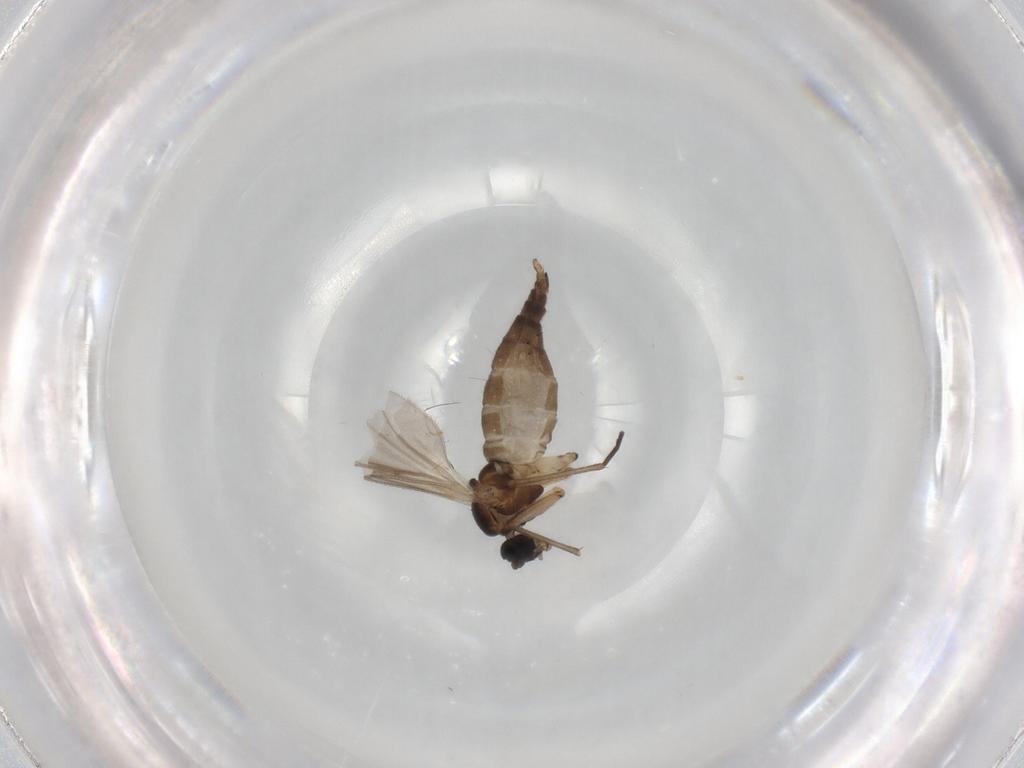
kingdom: Animalia
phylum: Arthropoda
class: Insecta
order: Diptera
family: Sciaridae
